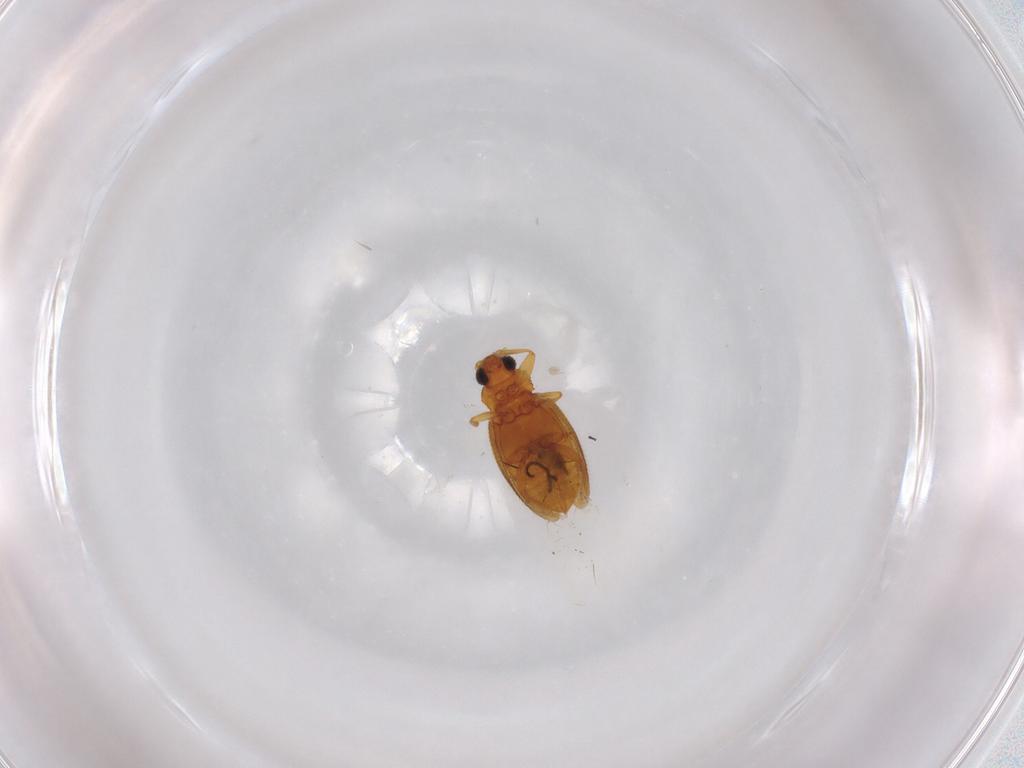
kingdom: Animalia
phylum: Arthropoda
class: Insecta
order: Coleoptera
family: Latridiidae
